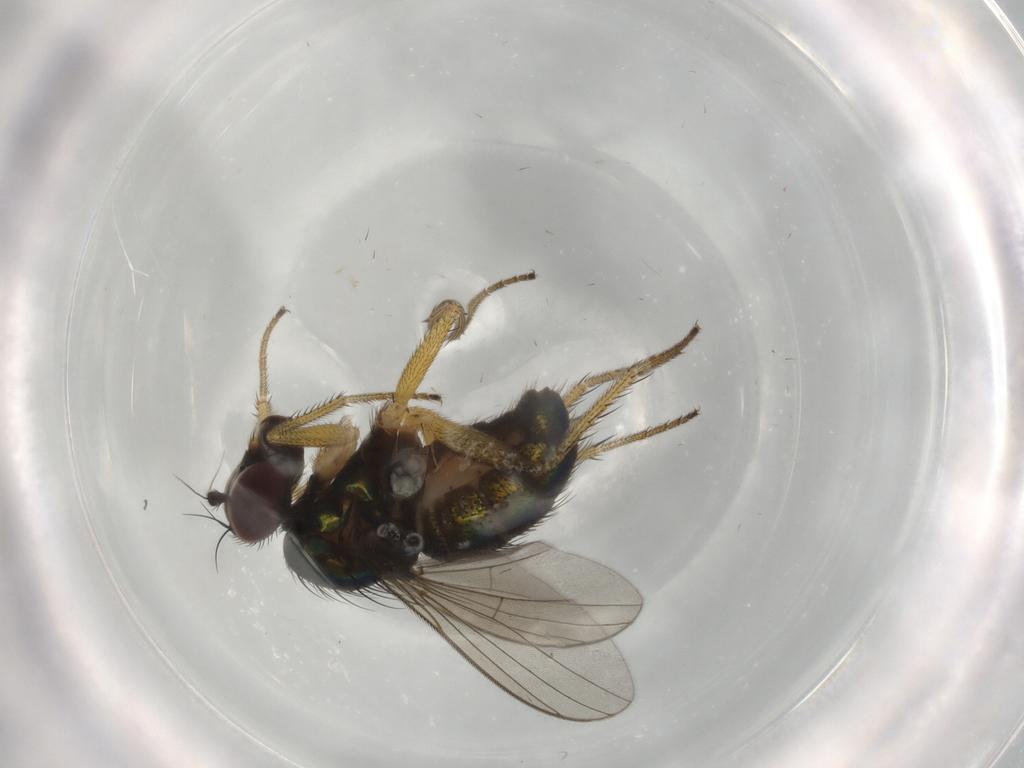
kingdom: Animalia
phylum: Arthropoda
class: Insecta
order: Diptera
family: Dolichopodidae
